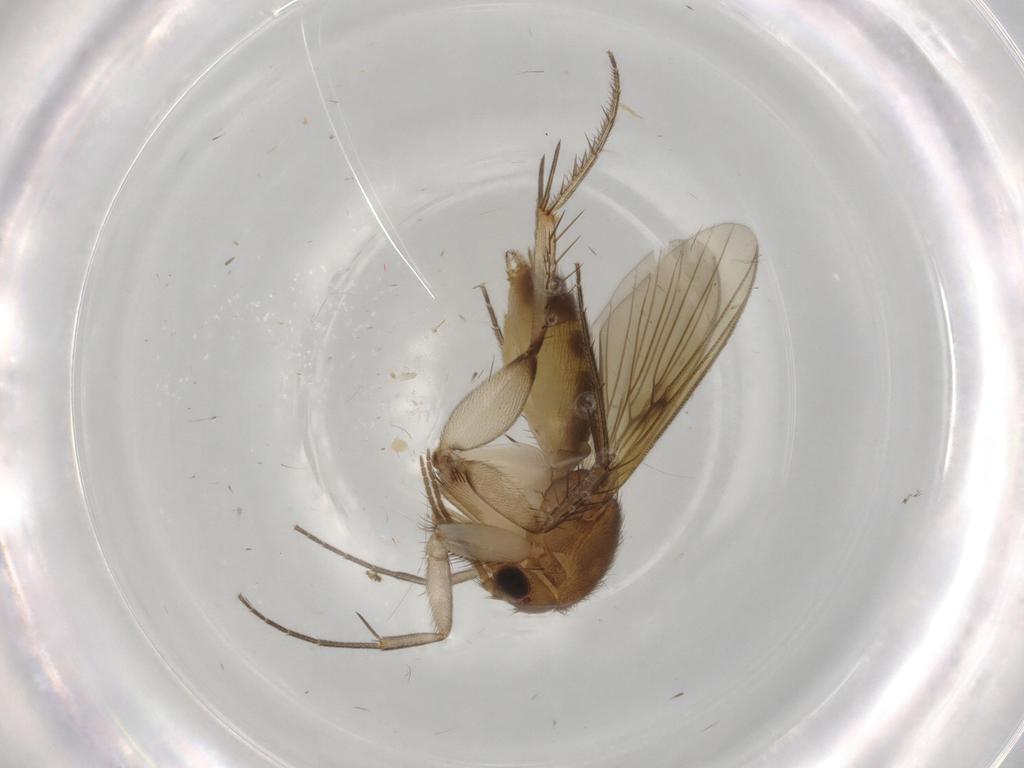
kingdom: Animalia
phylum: Arthropoda
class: Insecta
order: Diptera
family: Mycetophilidae
